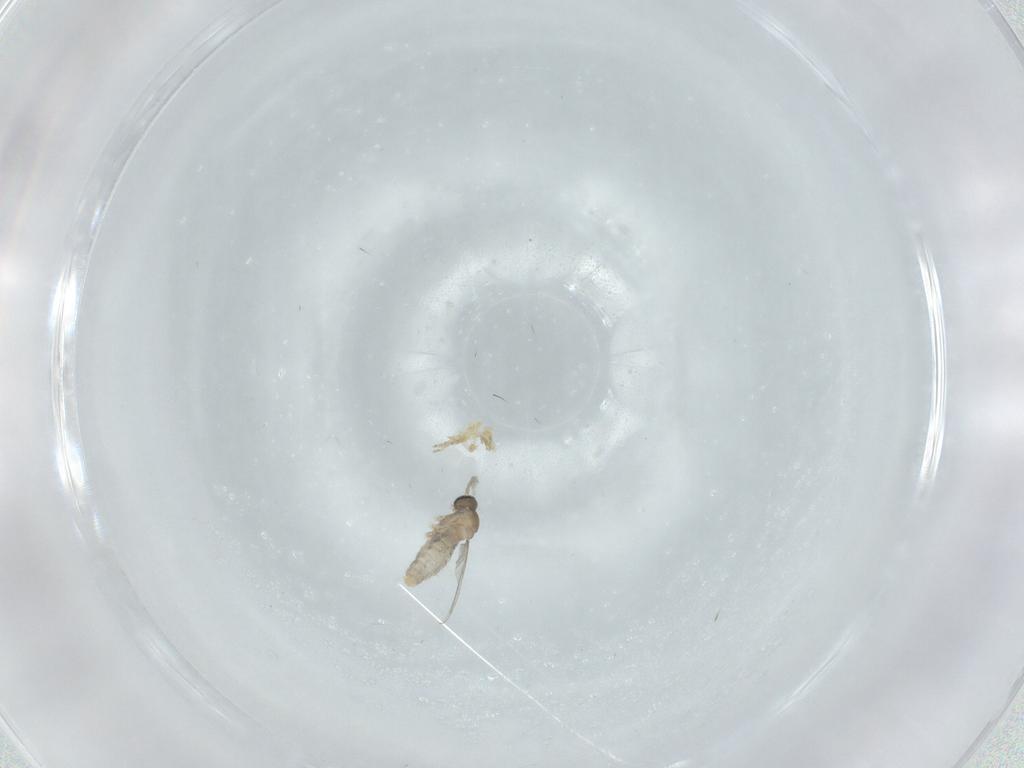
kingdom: Animalia
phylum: Arthropoda
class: Insecta
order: Diptera
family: Cecidomyiidae
